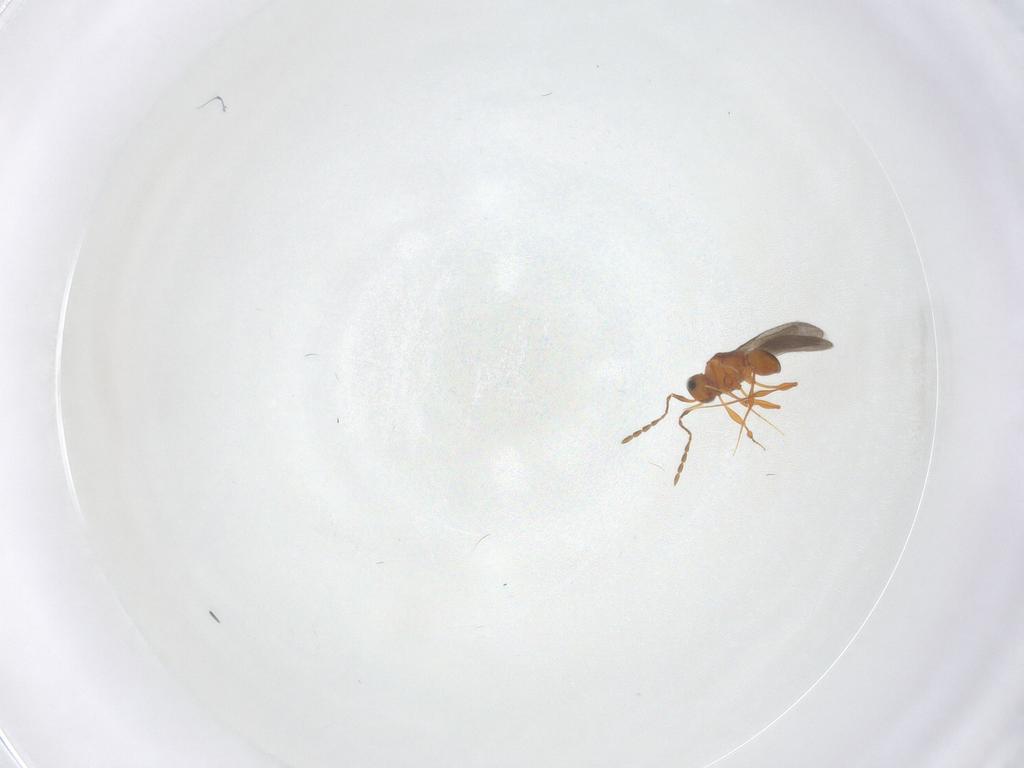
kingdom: Animalia
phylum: Arthropoda
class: Insecta
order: Hymenoptera
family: Platygastridae
